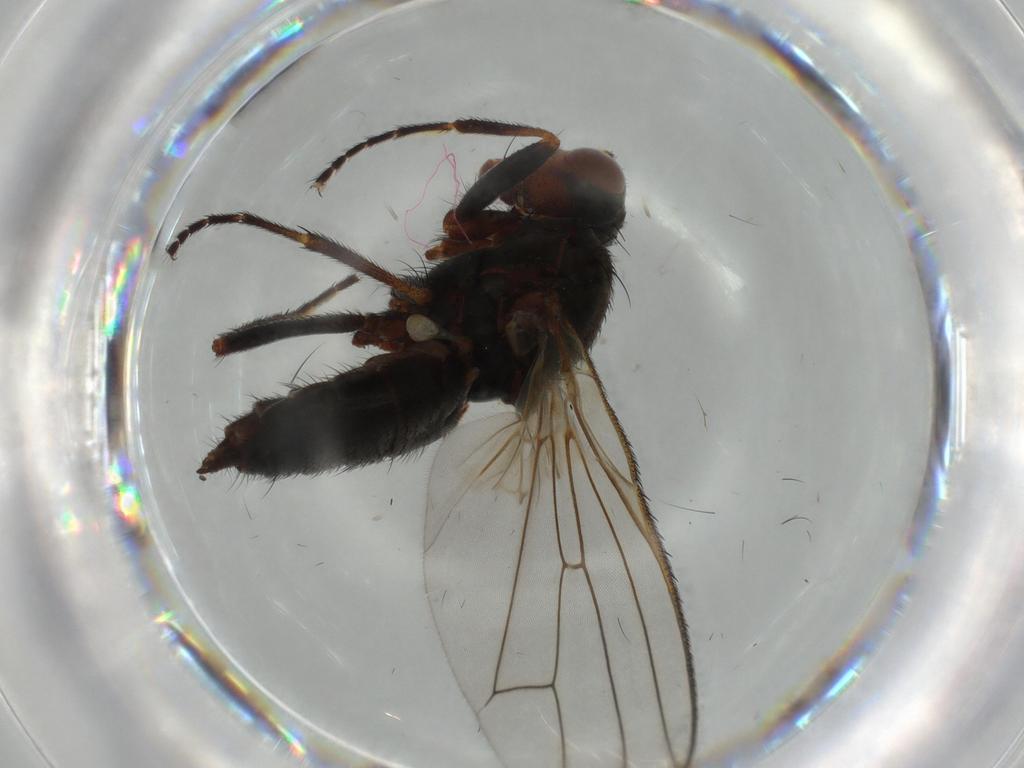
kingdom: Animalia
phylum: Arthropoda
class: Insecta
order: Diptera
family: Heleomyzidae
